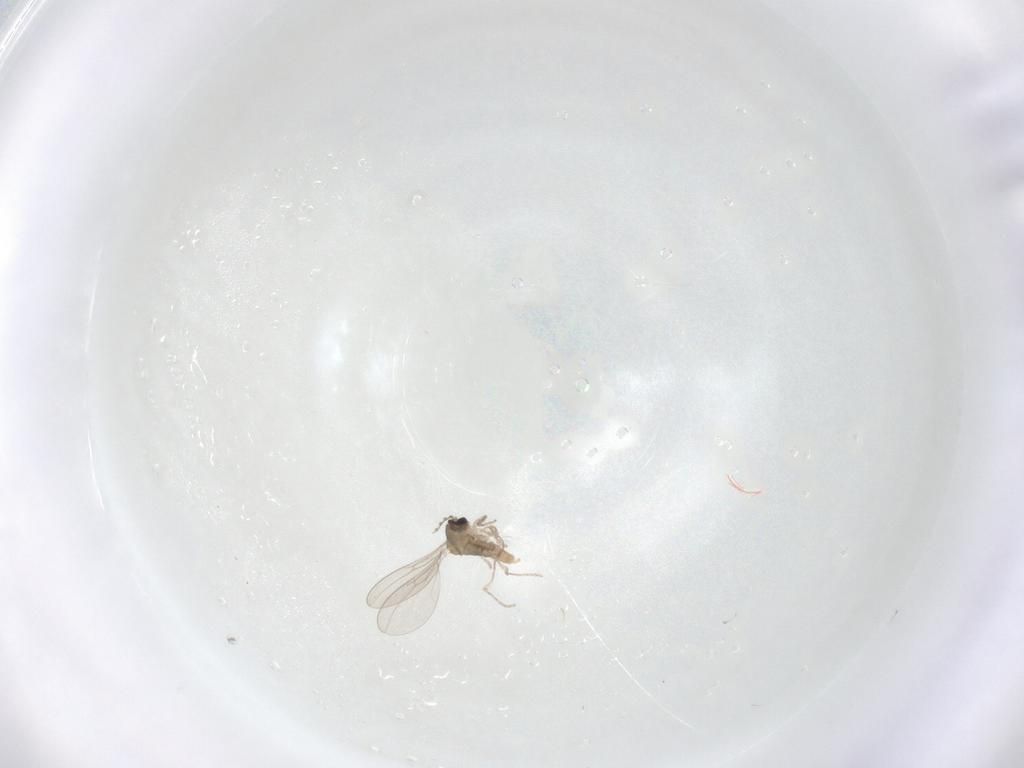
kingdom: Animalia
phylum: Arthropoda
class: Insecta
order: Diptera
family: Cecidomyiidae
